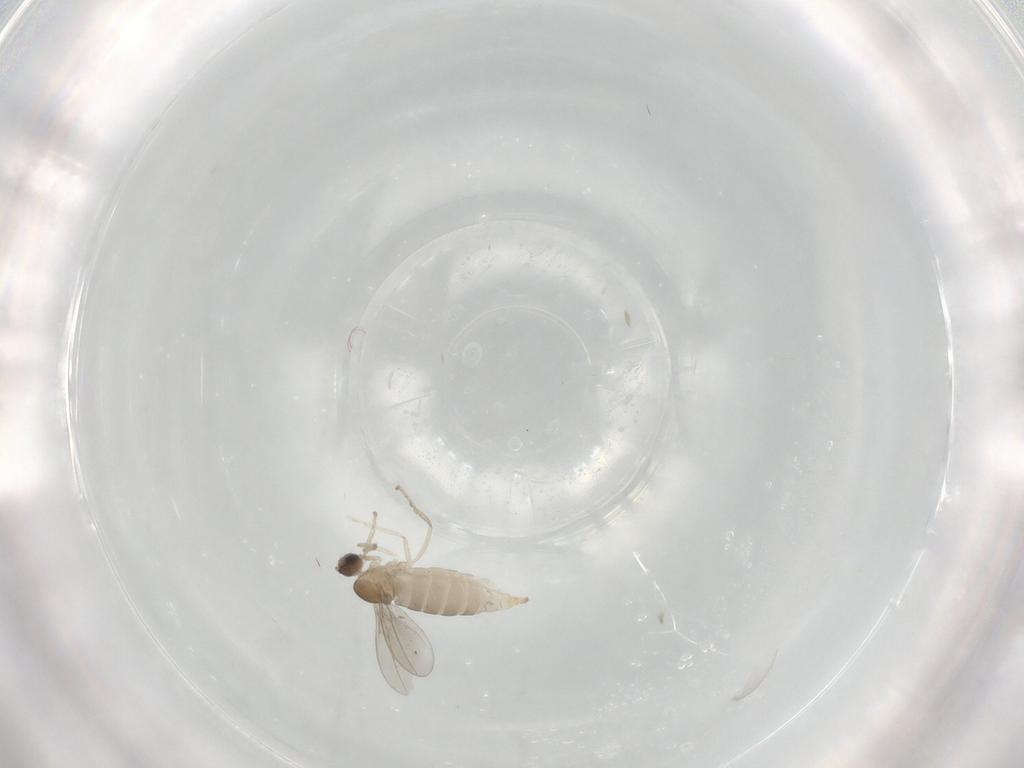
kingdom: Animalia
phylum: Arthropoda
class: Insecta
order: Diptera
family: Cecidomyiidae
